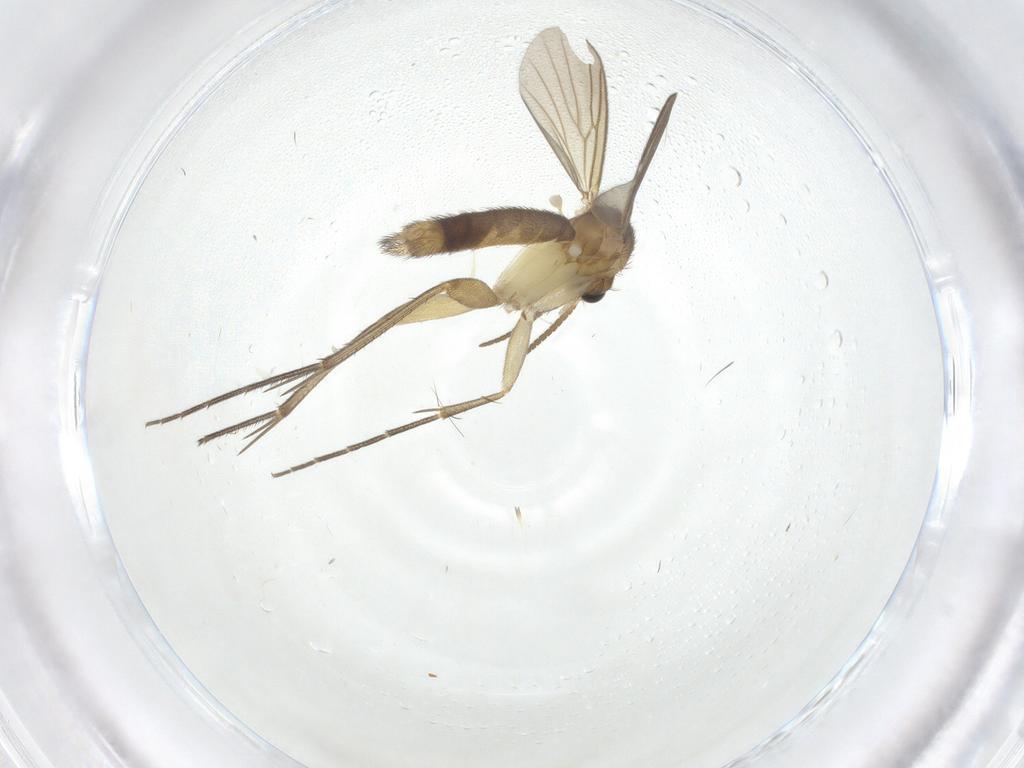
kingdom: Animalia
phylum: Arthropoda
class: Insecta
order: Diptera
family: Mycetophilidae
